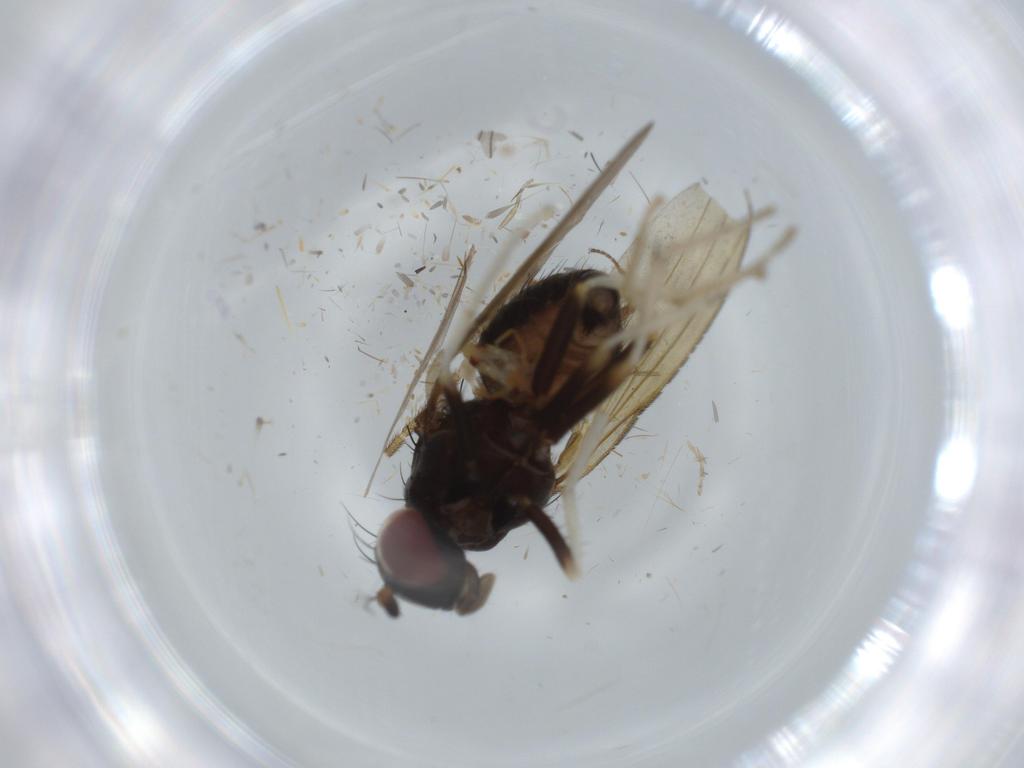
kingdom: Animalia
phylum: Arthropoda
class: Insecta
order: Diptera
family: Lauxaniidae
